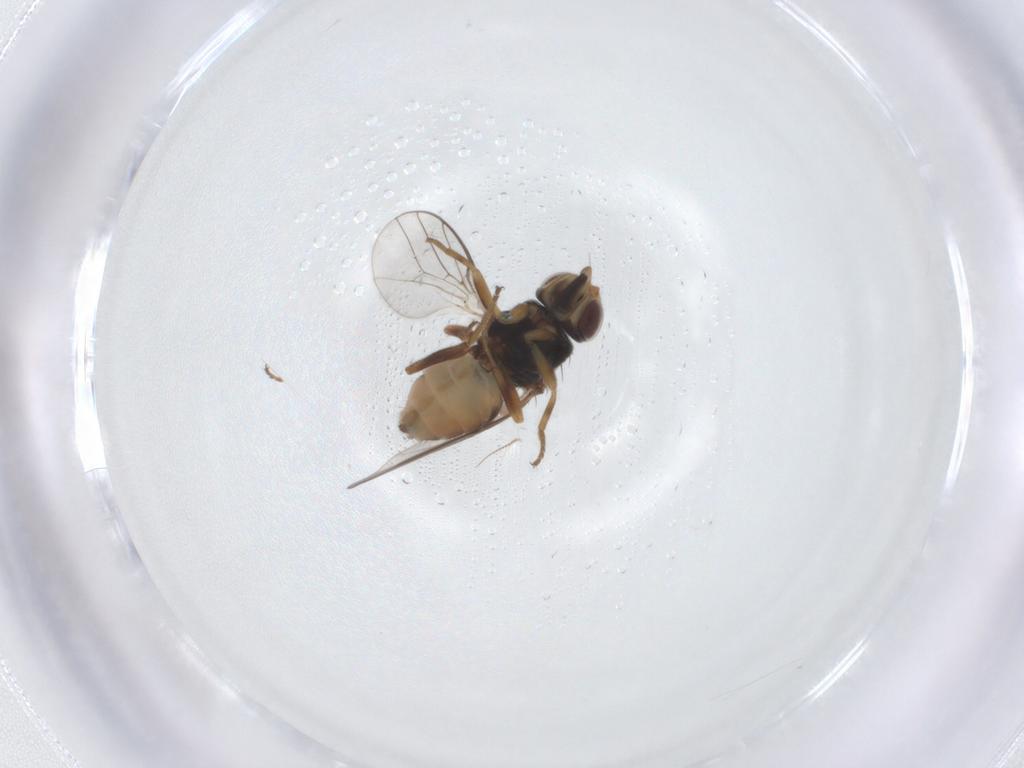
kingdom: Animalia
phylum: Arthropoda
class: Insecta
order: Diptera
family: Chloropidae
